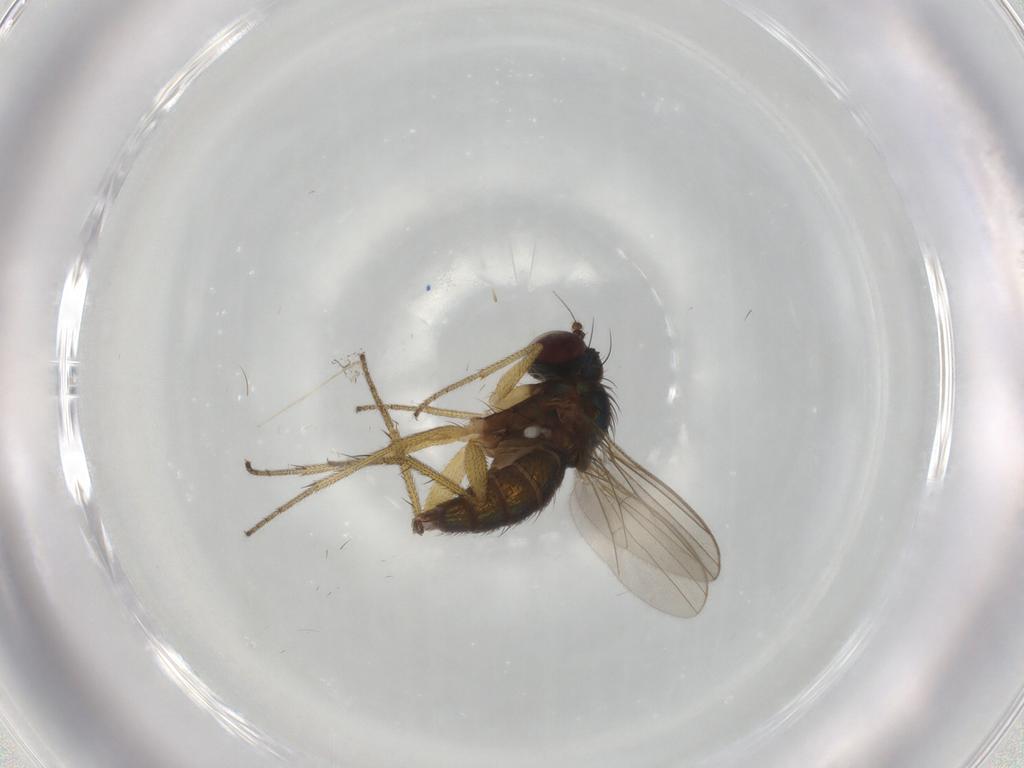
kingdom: Animalia
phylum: Arthropoda
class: Insecta
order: Diptera
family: Dolichopodidae
